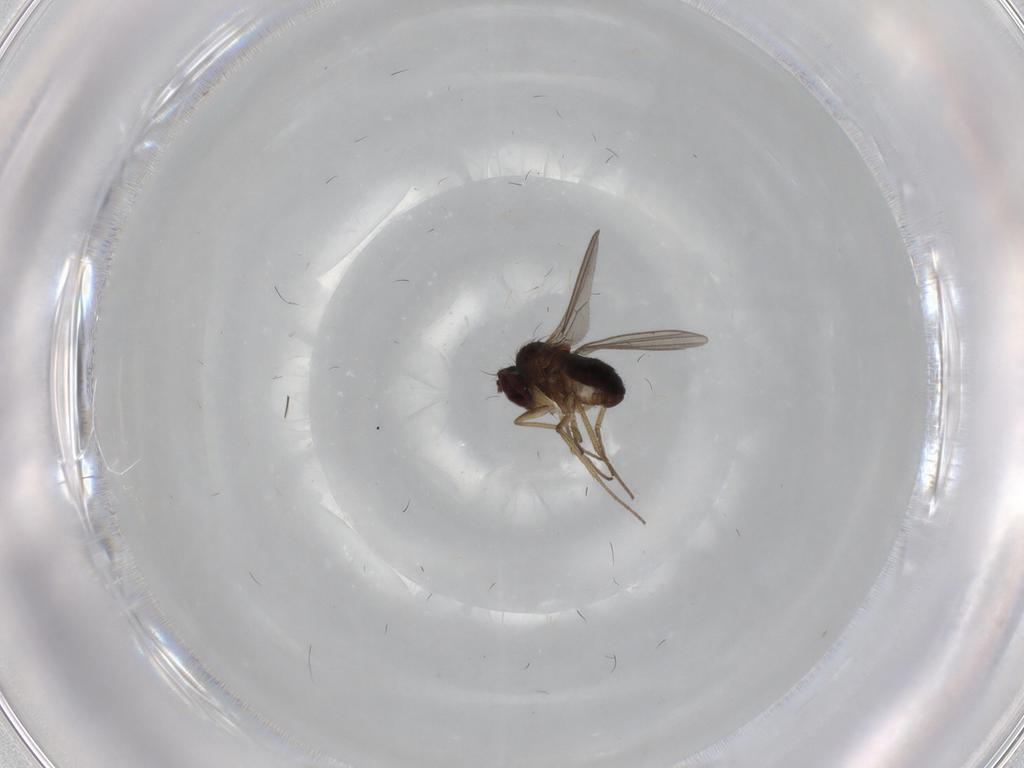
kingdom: Animalia
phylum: Arthropoda
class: Insecta
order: Diptera
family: Dolichopodidae
